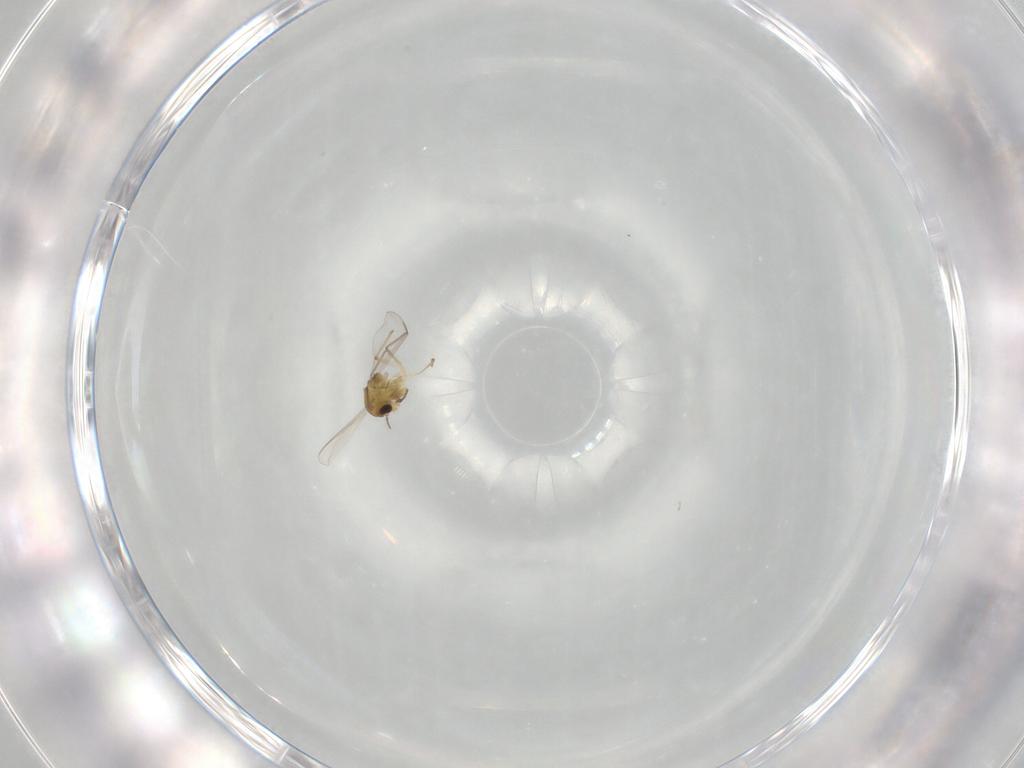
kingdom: Animalia
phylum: Arthropoda
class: Insecta
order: Diptera
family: Chironomidae
